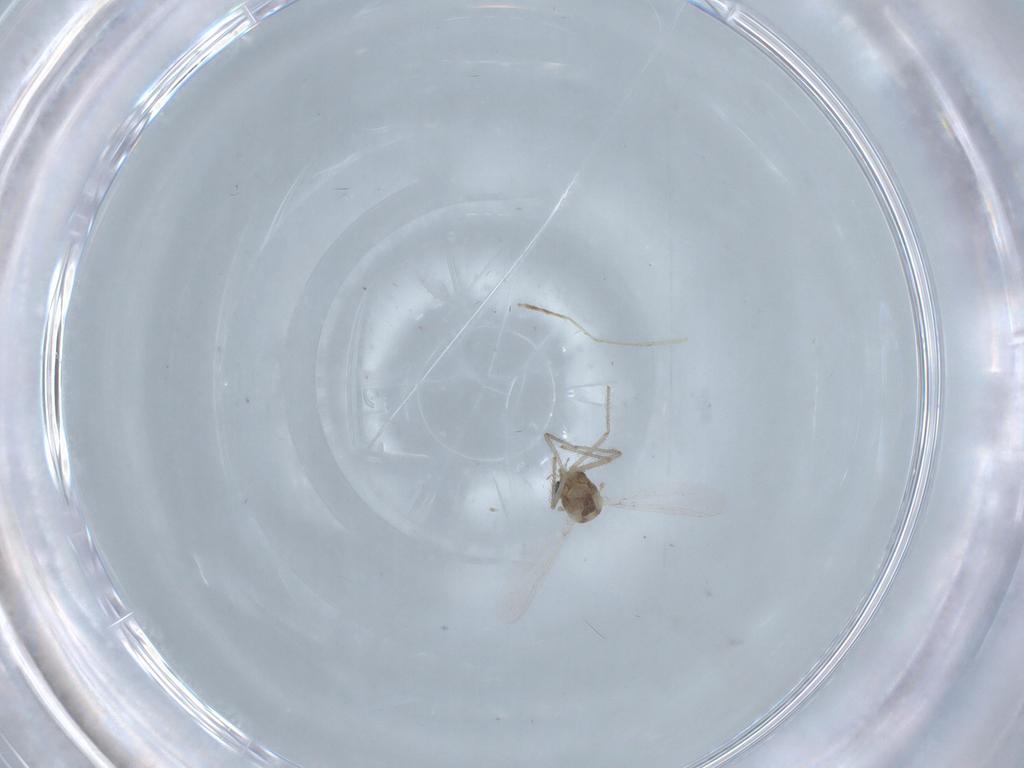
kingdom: Animalia
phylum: Arthropoda
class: Insecta
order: Diptera
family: Chironomidae
